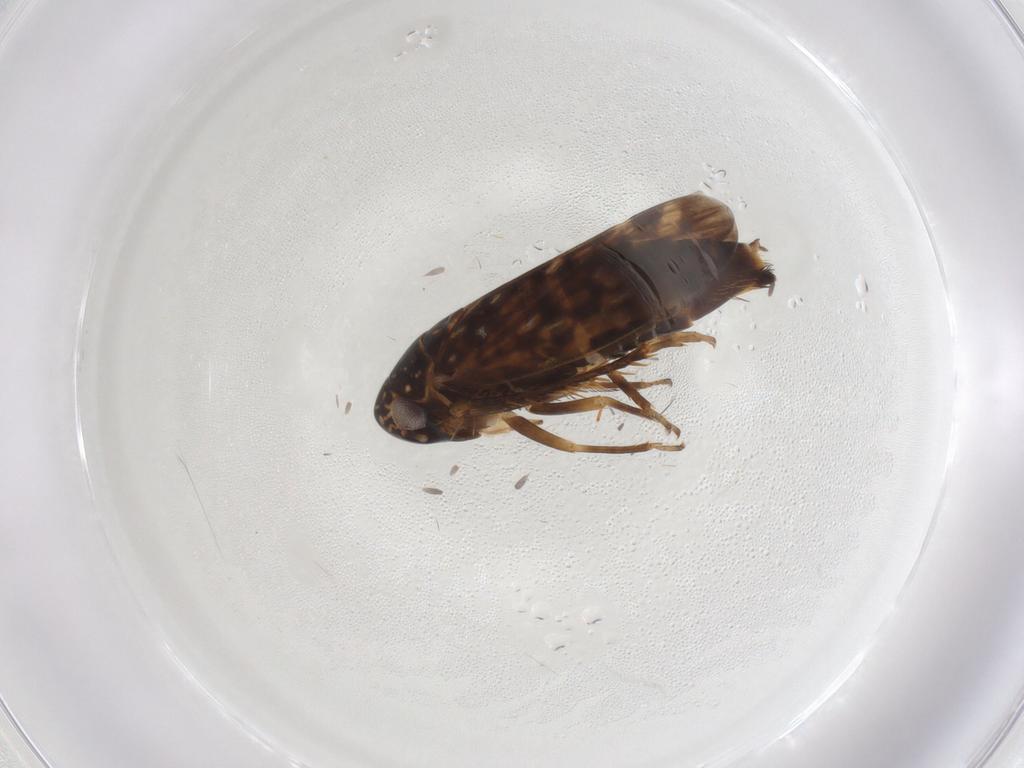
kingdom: Animalia
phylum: Arthropoda
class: Insecta
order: Hemiptera
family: Cicadellidae
